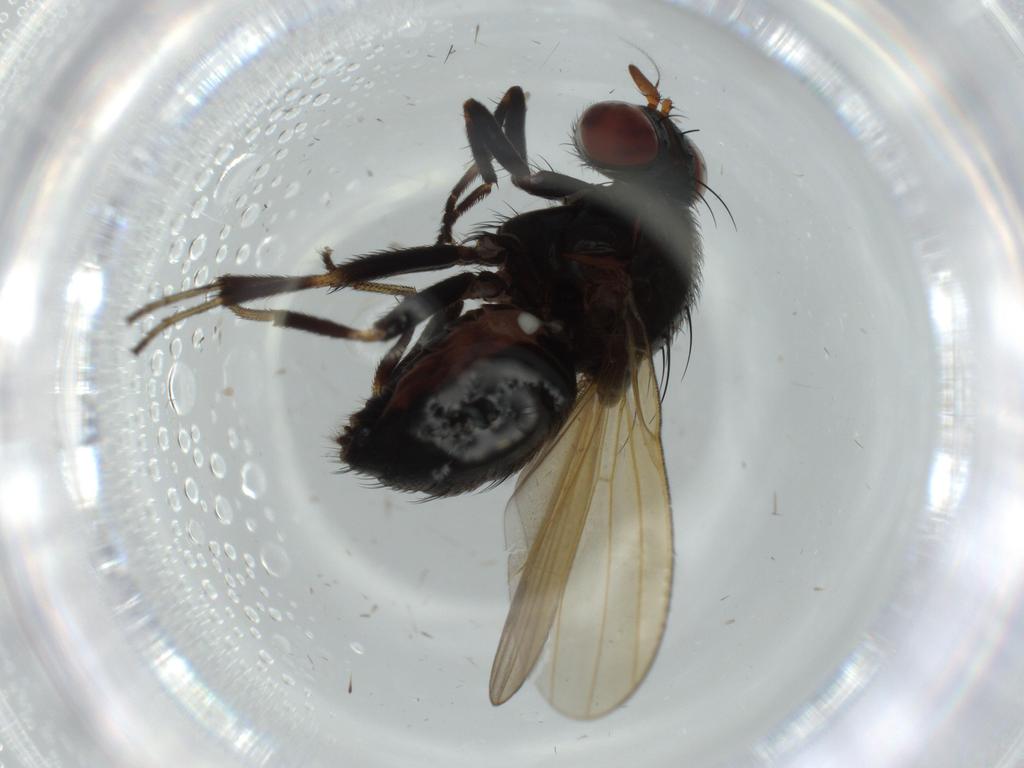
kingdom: Animalia
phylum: Arthropoda
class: Insecta
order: Diptera
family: Lauxaniidae
